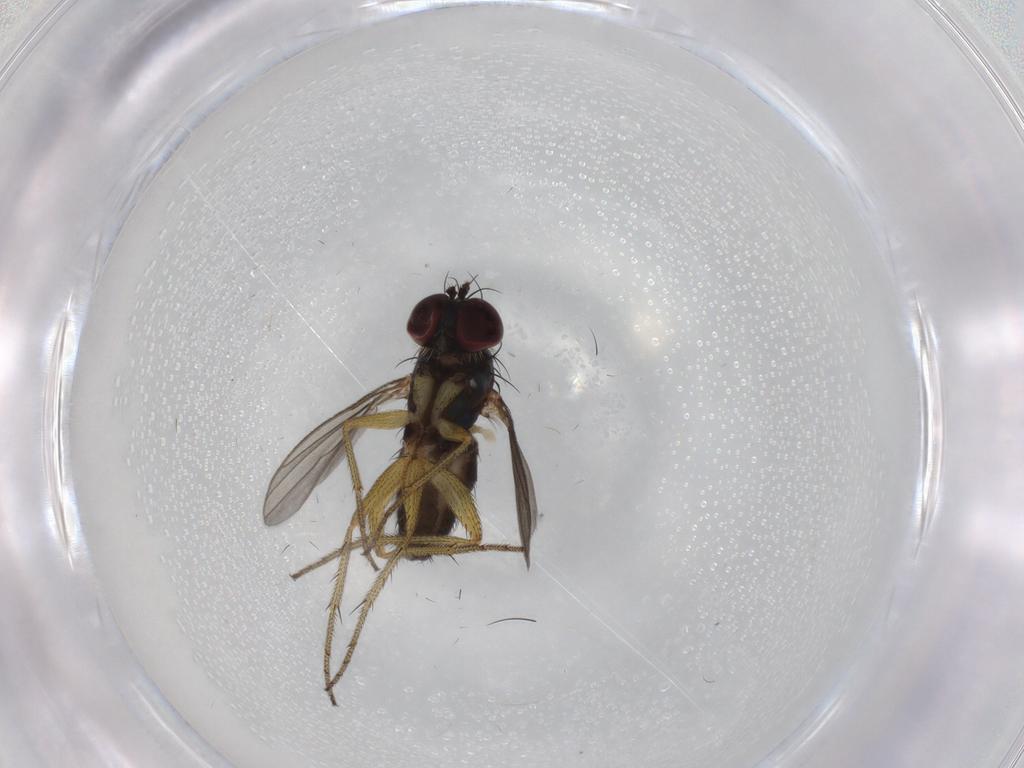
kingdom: Animalia
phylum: Arthropoda
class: Insecta
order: Diptera
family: Dolichopodidae
